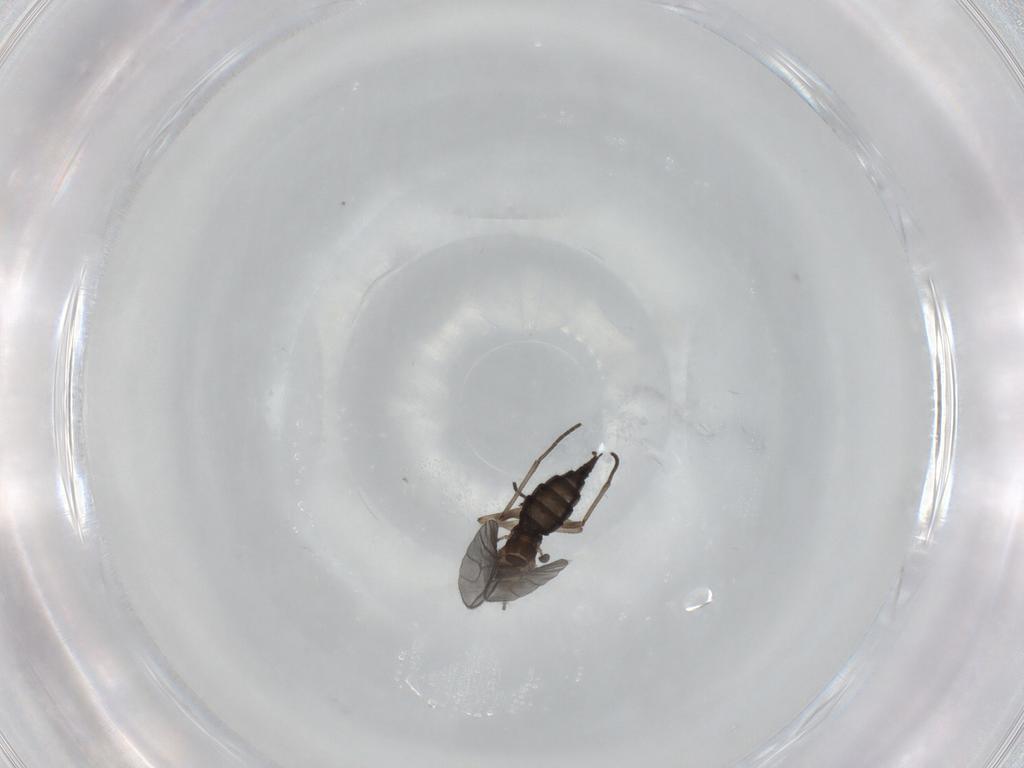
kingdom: Animalia
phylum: Arthropoda
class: Insecta
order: Diptera
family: Sciaridae
